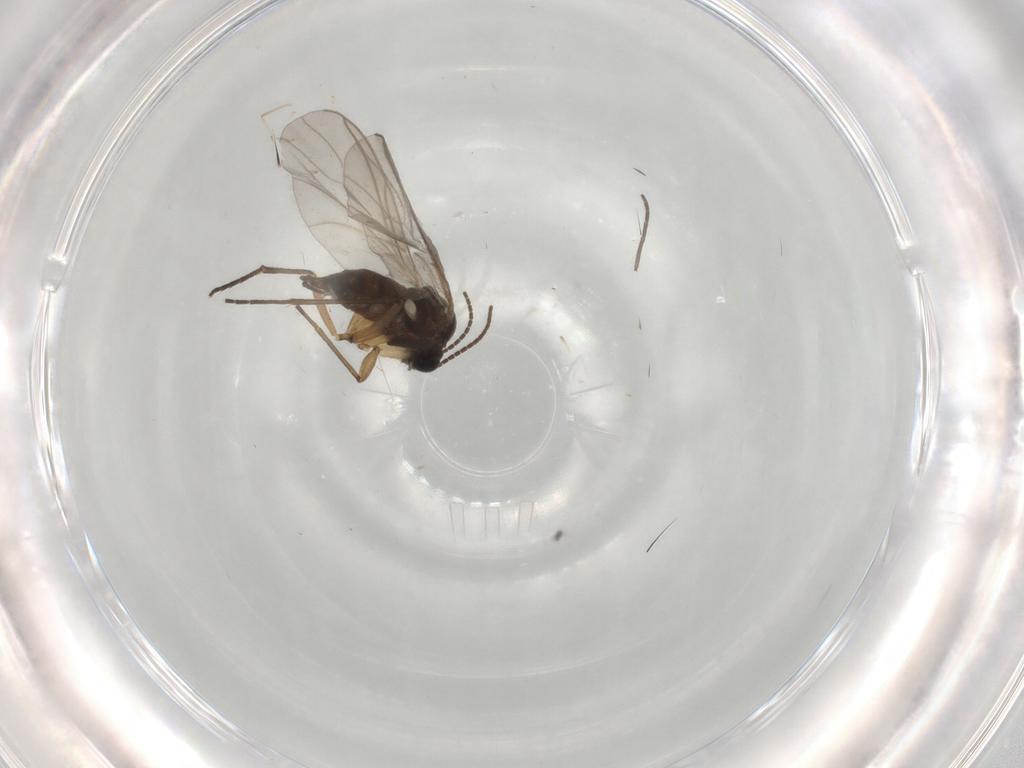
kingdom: Animalia
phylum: Arthropoda
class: Insecta
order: Diptera
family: Sciaridae
